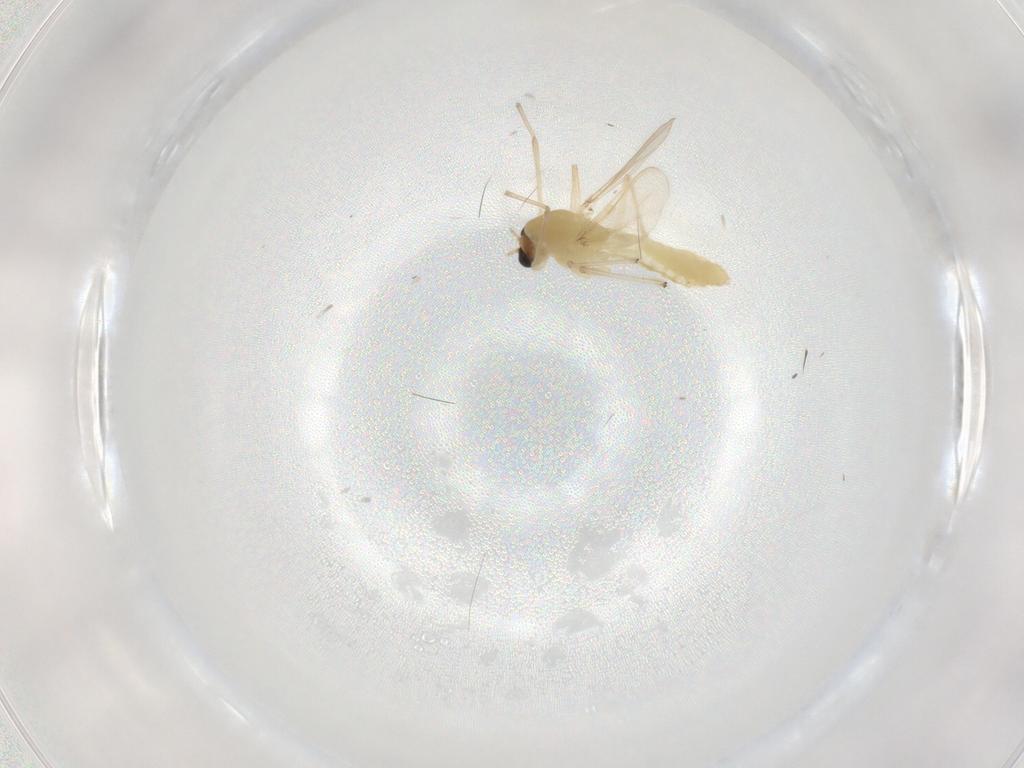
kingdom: Animalia
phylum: Arthropoda
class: Insecta
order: Diptera
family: Chironomidae
